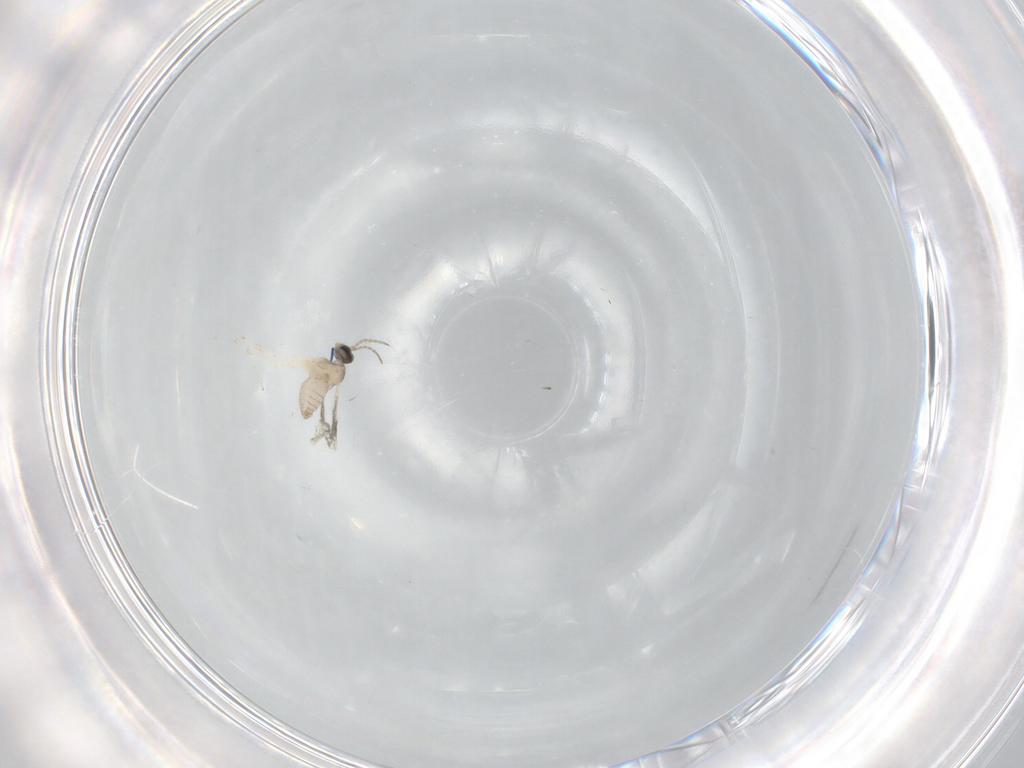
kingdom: Animalia
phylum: Arthropoda
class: Insecta
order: Diptera
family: Cecidomyiidae
